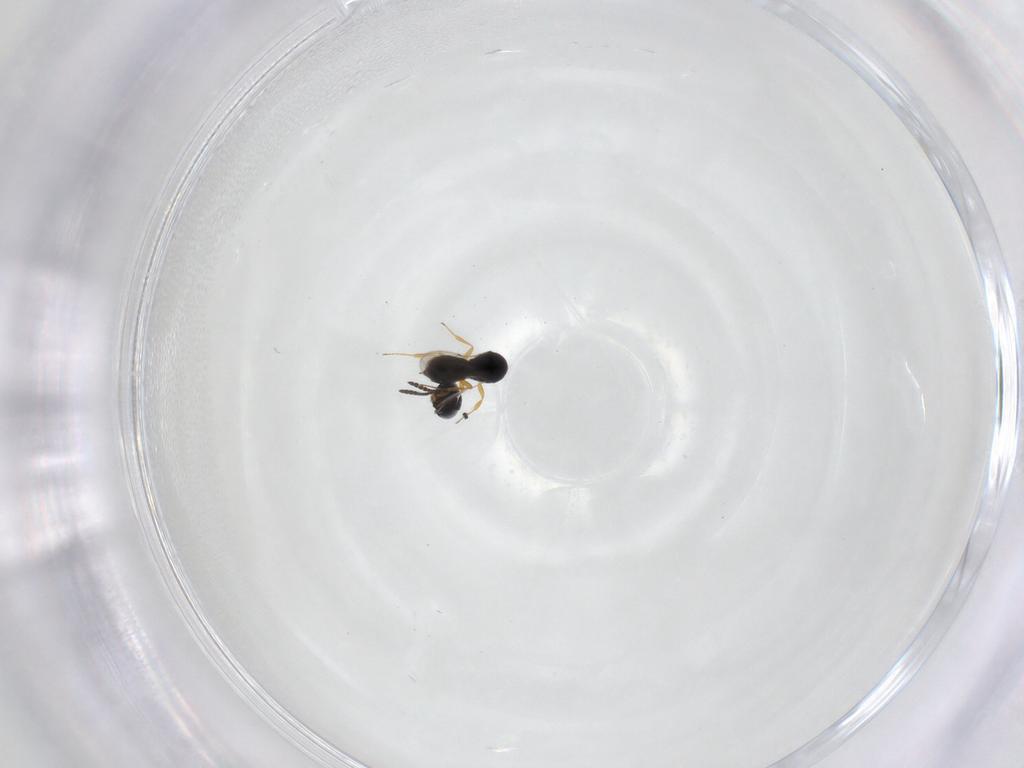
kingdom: Animalia
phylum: Arthropoda
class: Insecta
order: Hymenoptera
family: Scelionidae
